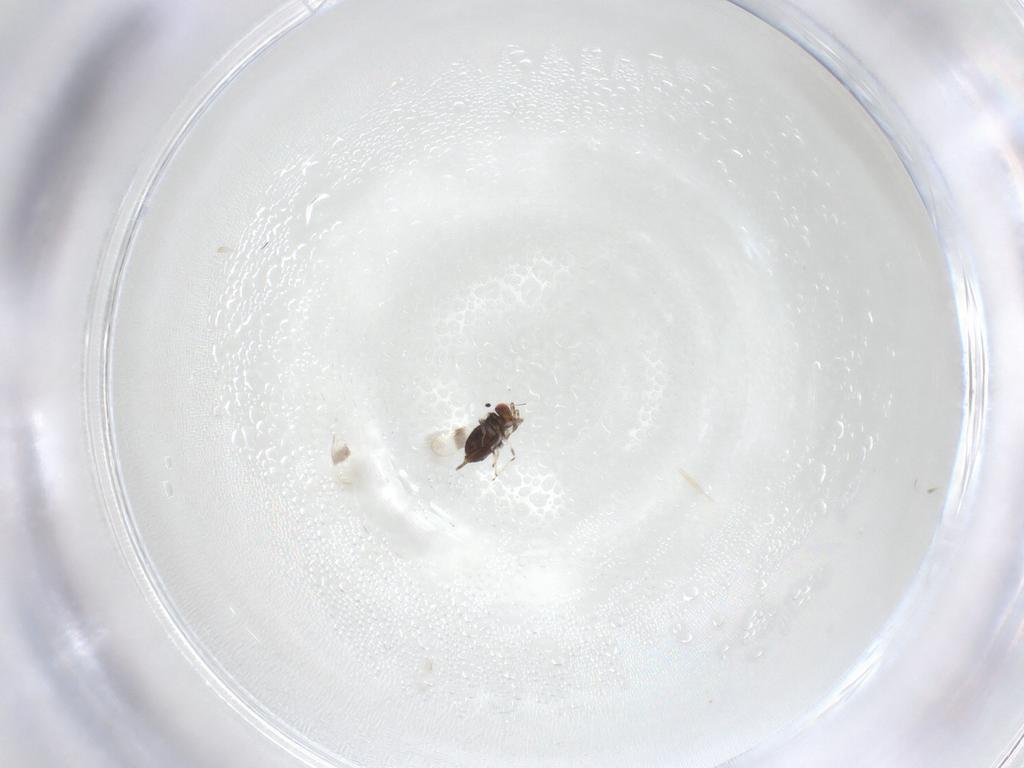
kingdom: Animalia
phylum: Arthropoda
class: Insecta
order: Hymenoptera
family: Azotidae
